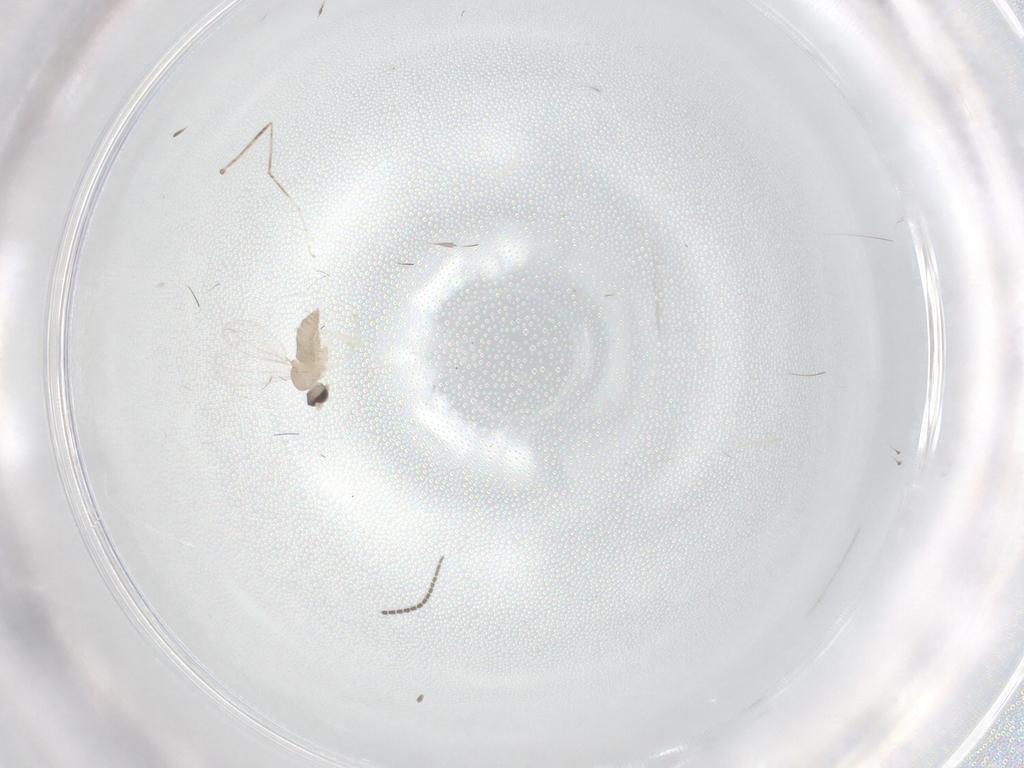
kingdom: Animalia
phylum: Arthropoda
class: Insecta
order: Diptera
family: Cecidomyiidae
